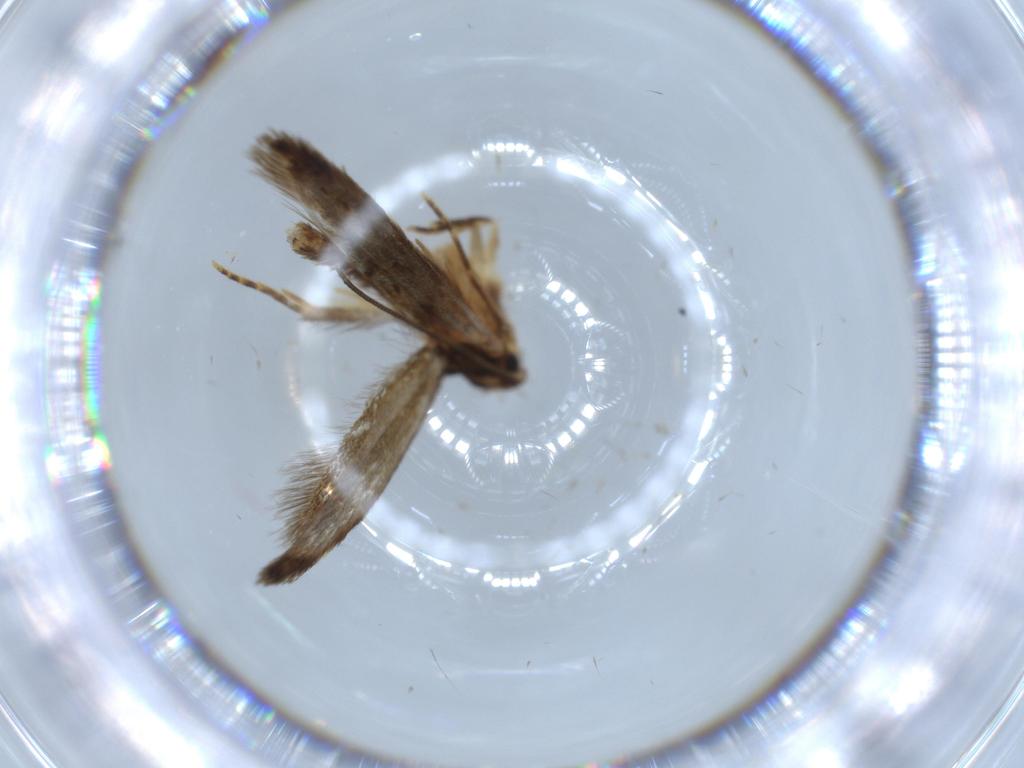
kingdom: Animalia
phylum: Arthropoda
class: Insecta
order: Lepidoptera
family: Tineidae
